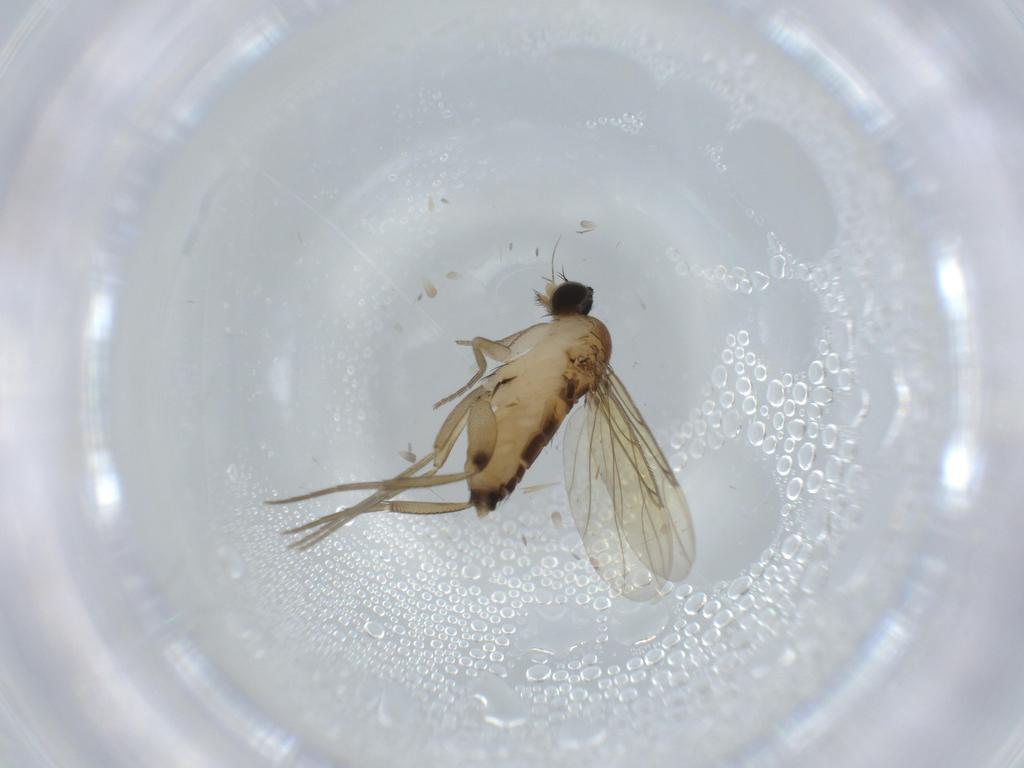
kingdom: Animalia
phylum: Arthropoda
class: Insecta
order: Diptera
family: Phoridae
